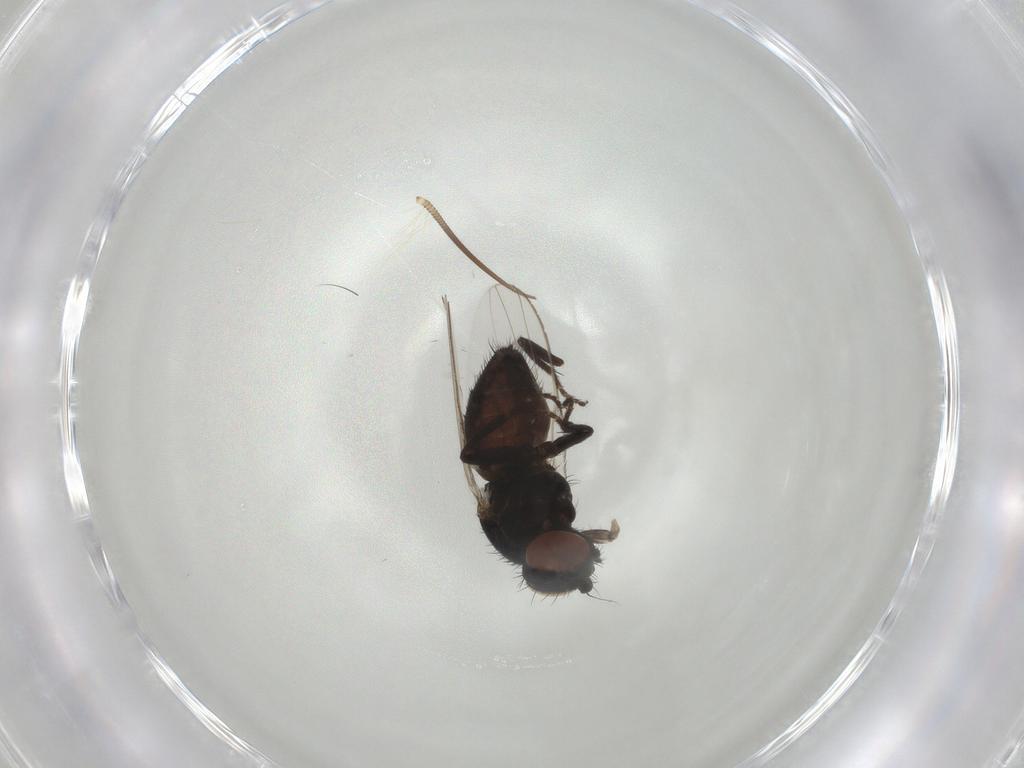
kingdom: Animalia
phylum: Arthropoda
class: Insecta
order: Diptera
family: Milichiidae
